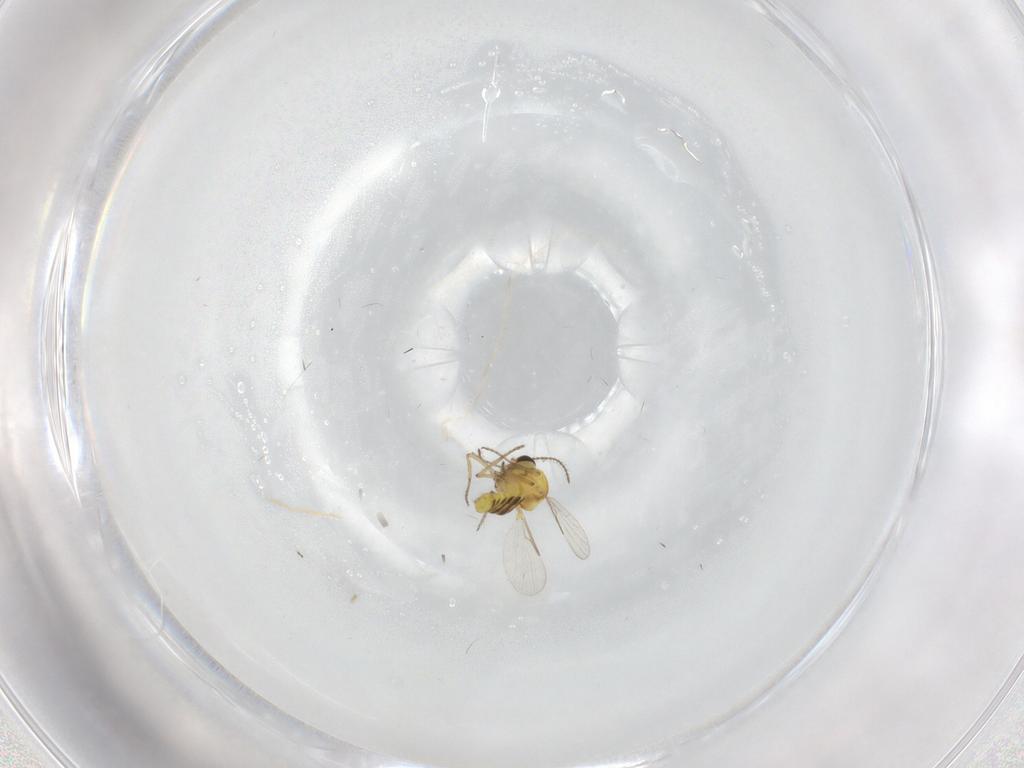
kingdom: Animalia
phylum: Arthropoda
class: Insecta
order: Diptera
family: Ceratopogonidae
